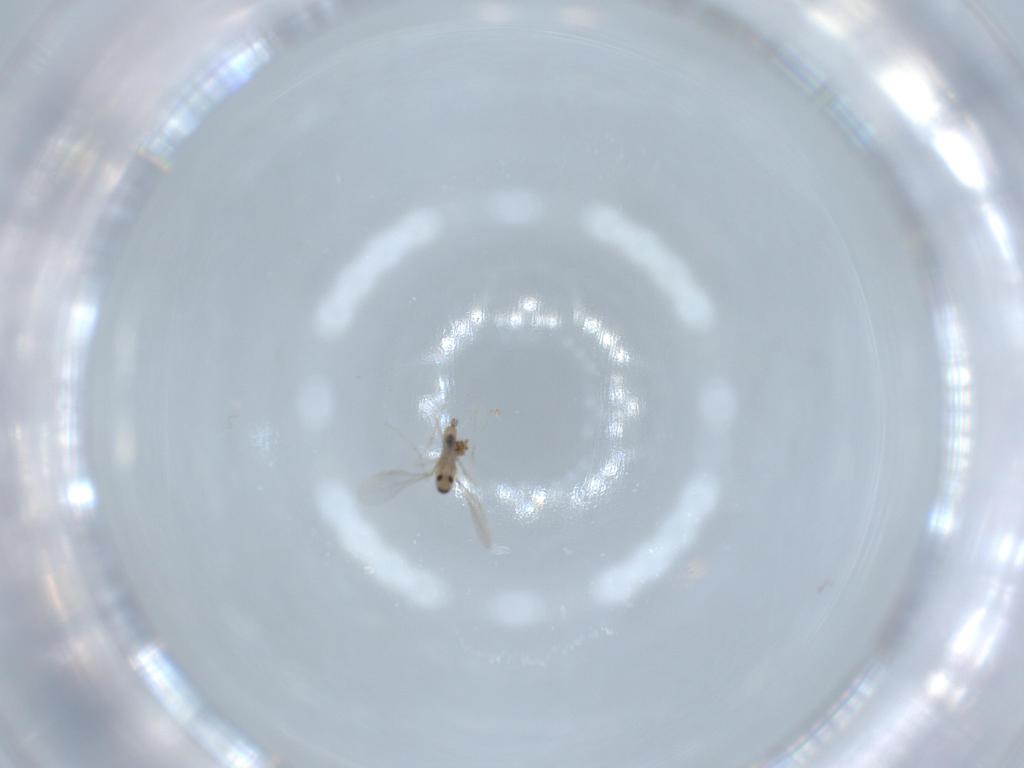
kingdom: Animalia
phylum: Arthropoda
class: Insecta
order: Diptera
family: Cecidomyiidae
